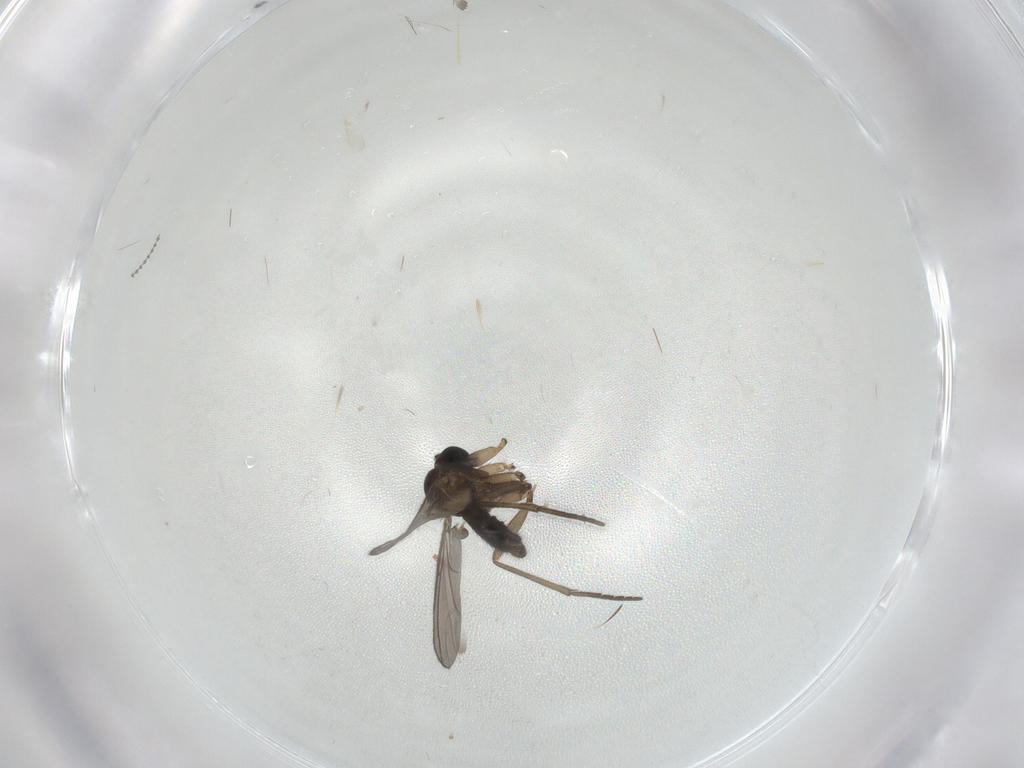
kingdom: Animalia
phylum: Arthropoda
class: Insecta
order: Diptera
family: Sciaridae
